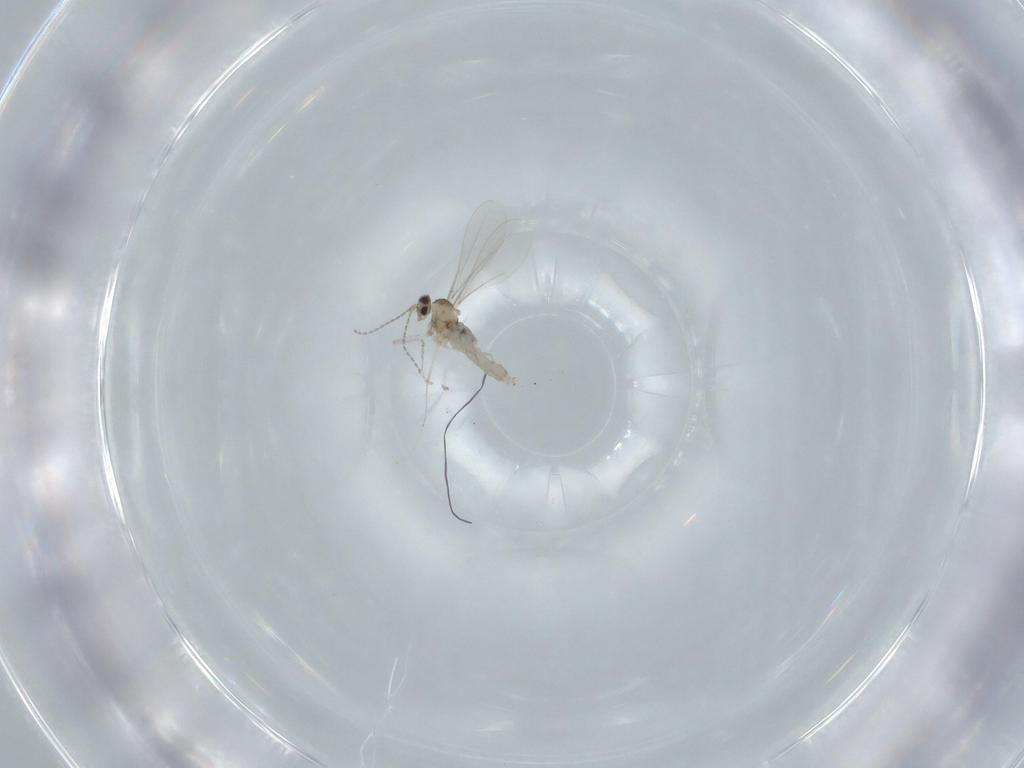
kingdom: Animalia
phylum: Arthropoda
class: Insecta
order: Diptera
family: Cecidomyiidae
